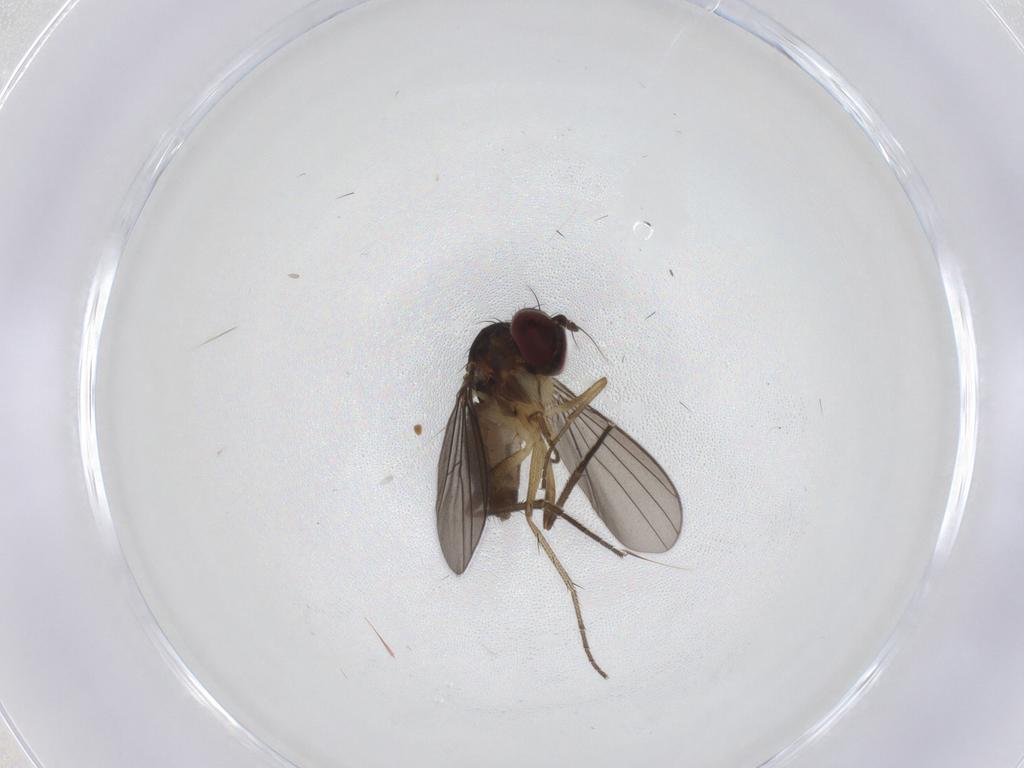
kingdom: Animalia
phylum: Arthropoda
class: Insecta
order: Diptera
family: Dolichopodidae
